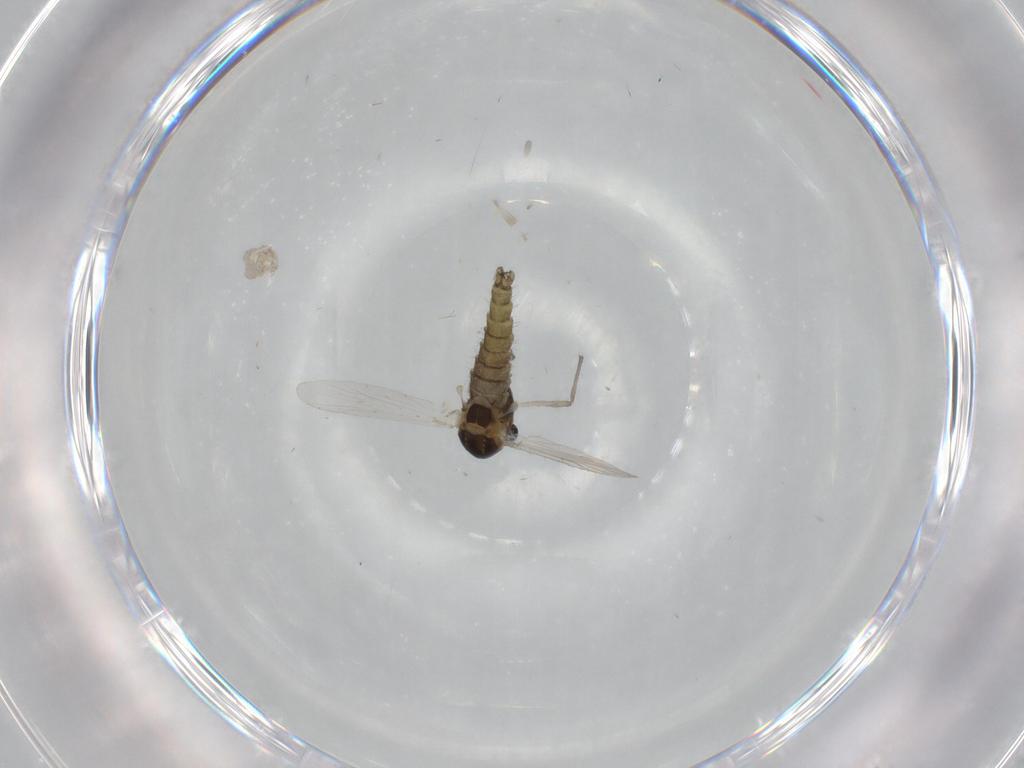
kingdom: Animalia
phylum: Arthropoda
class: Insecta
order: Diptera
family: Chironomidae
